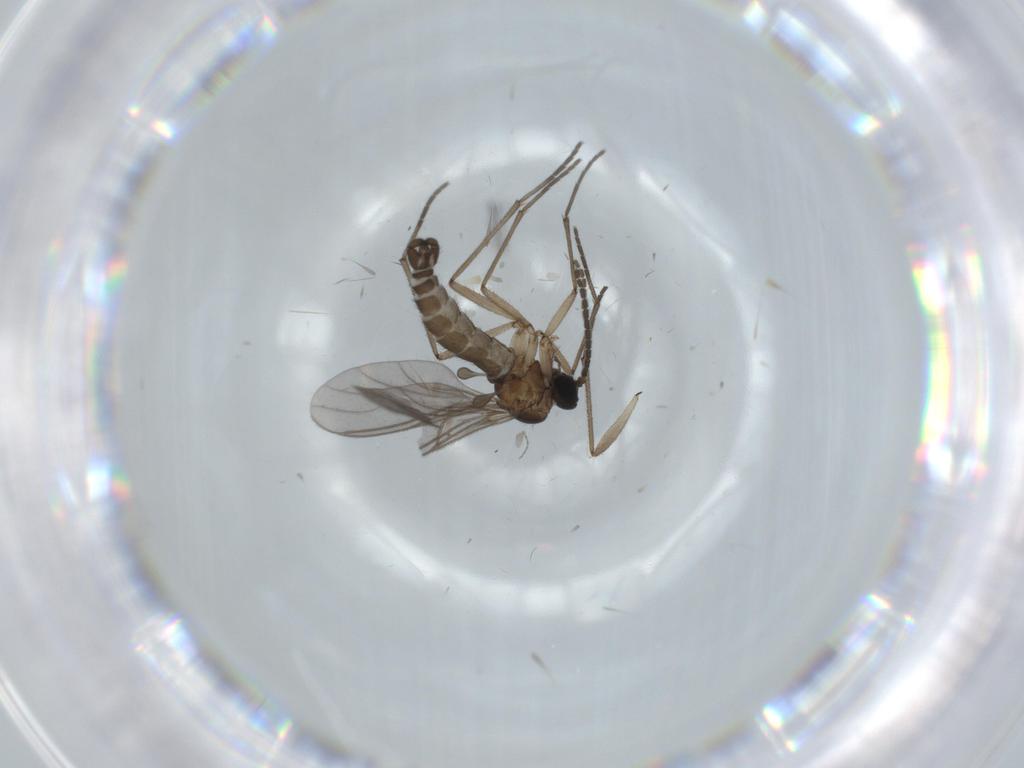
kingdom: Animalia
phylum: Arthropoda
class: Insecta
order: Diptera
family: Sciaridae
